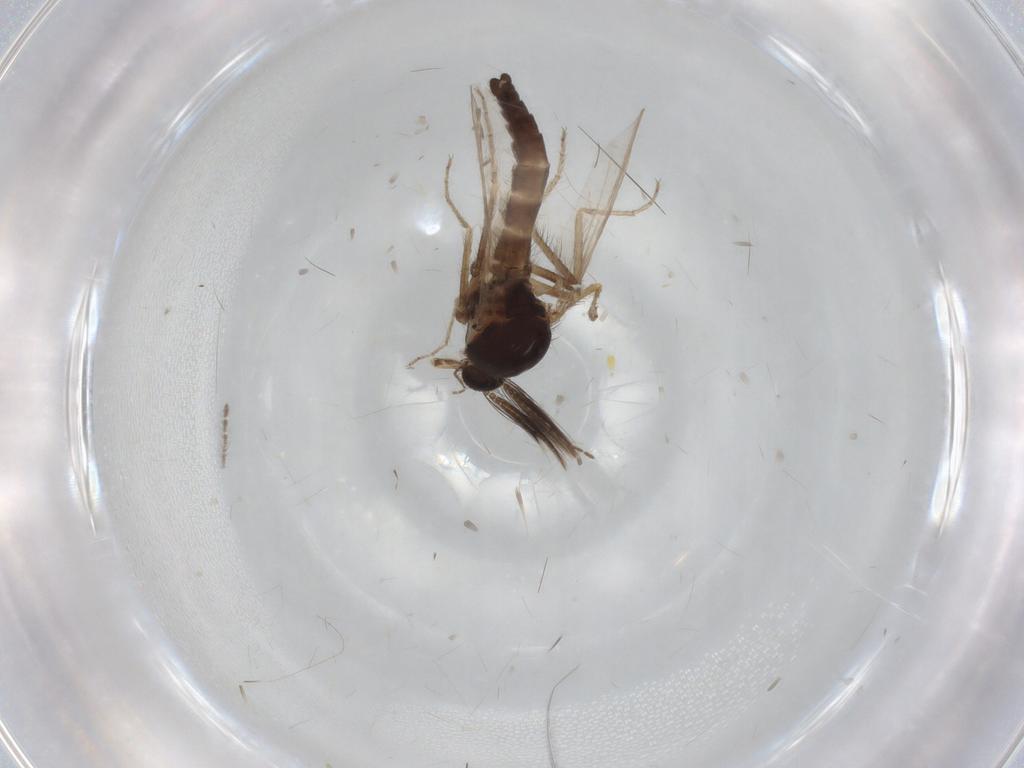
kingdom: Animalia
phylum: Arthropoda
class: Insecta
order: Diptera
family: Ceratopogonidae
